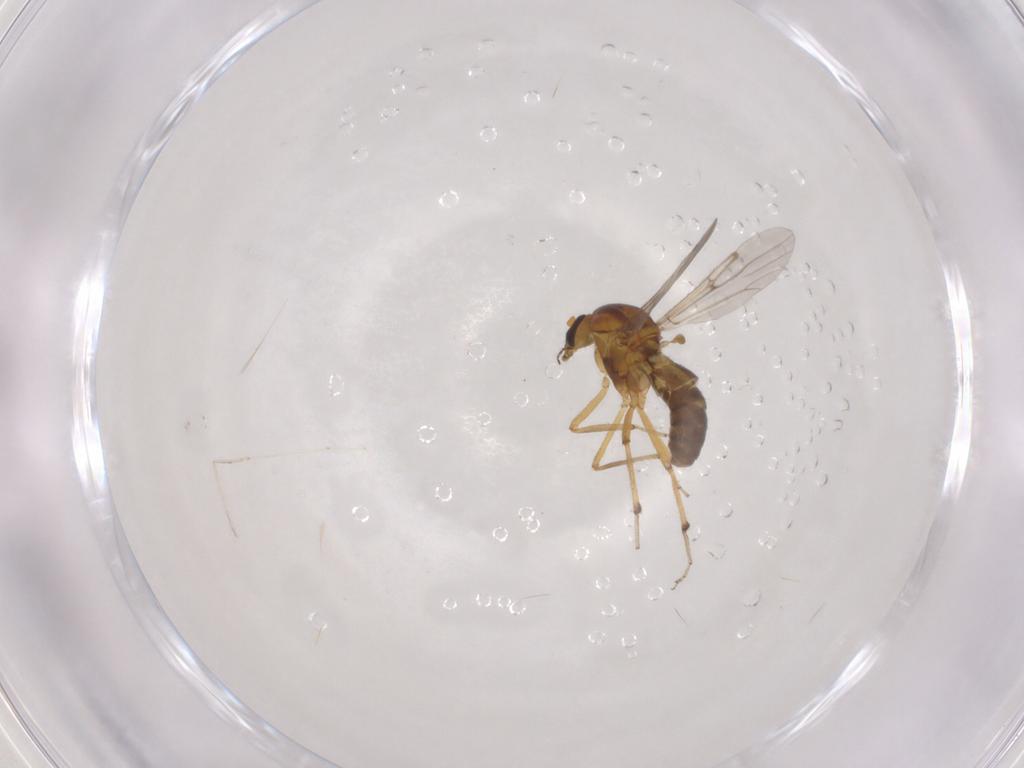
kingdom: Animalia
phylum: Arthropoda
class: Insecta
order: Diptera
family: Ceratopogonidae
